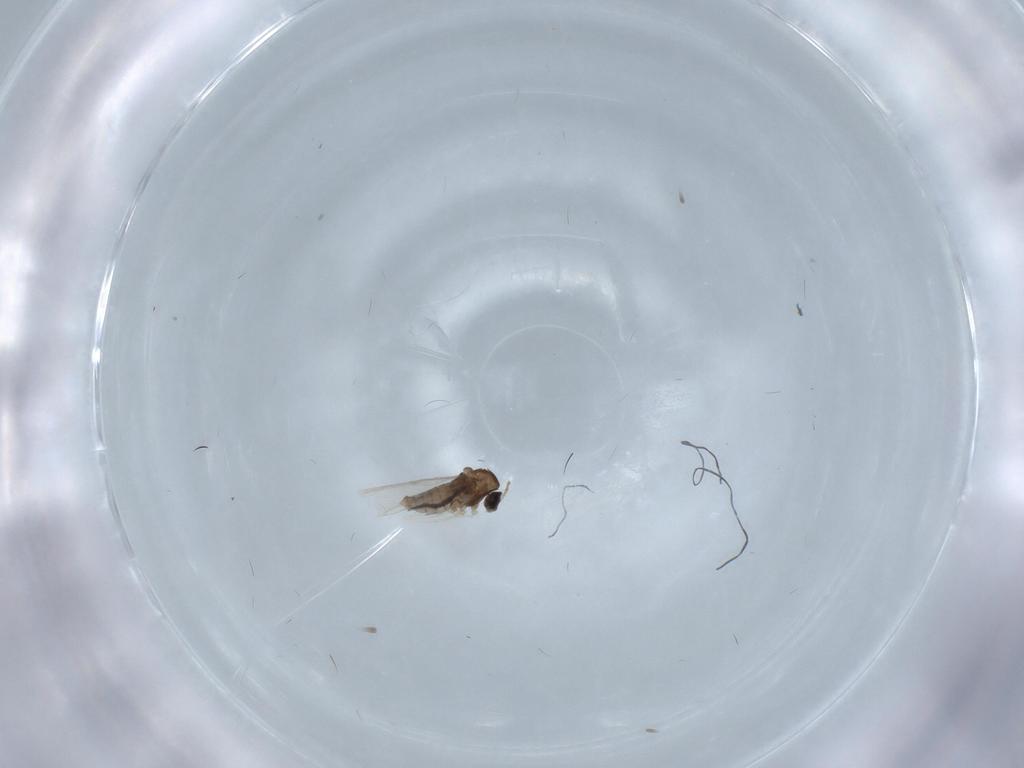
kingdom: Animalia
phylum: Arthropoda
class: Insecta
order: Diptera
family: Cecidomyiidae
